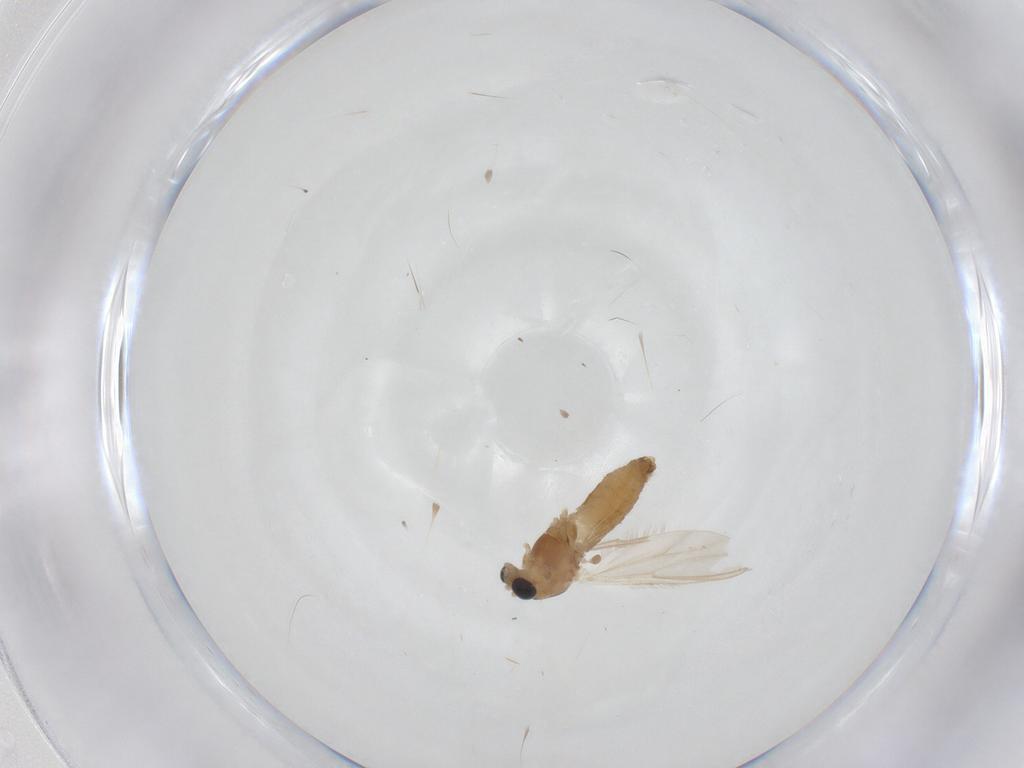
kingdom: Animalia
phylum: Arthropoda
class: Insecta
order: Diptera
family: Chironomidae
